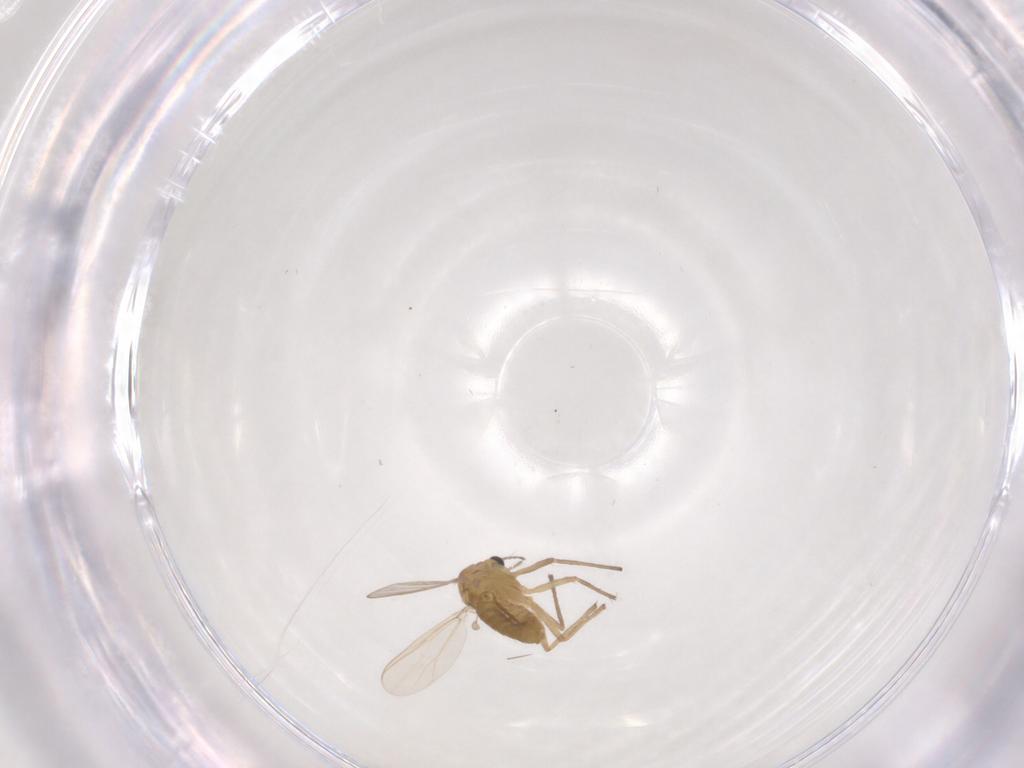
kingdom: Animalia
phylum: Arthropoda
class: Insecta
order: Diptera
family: Chironomidae
